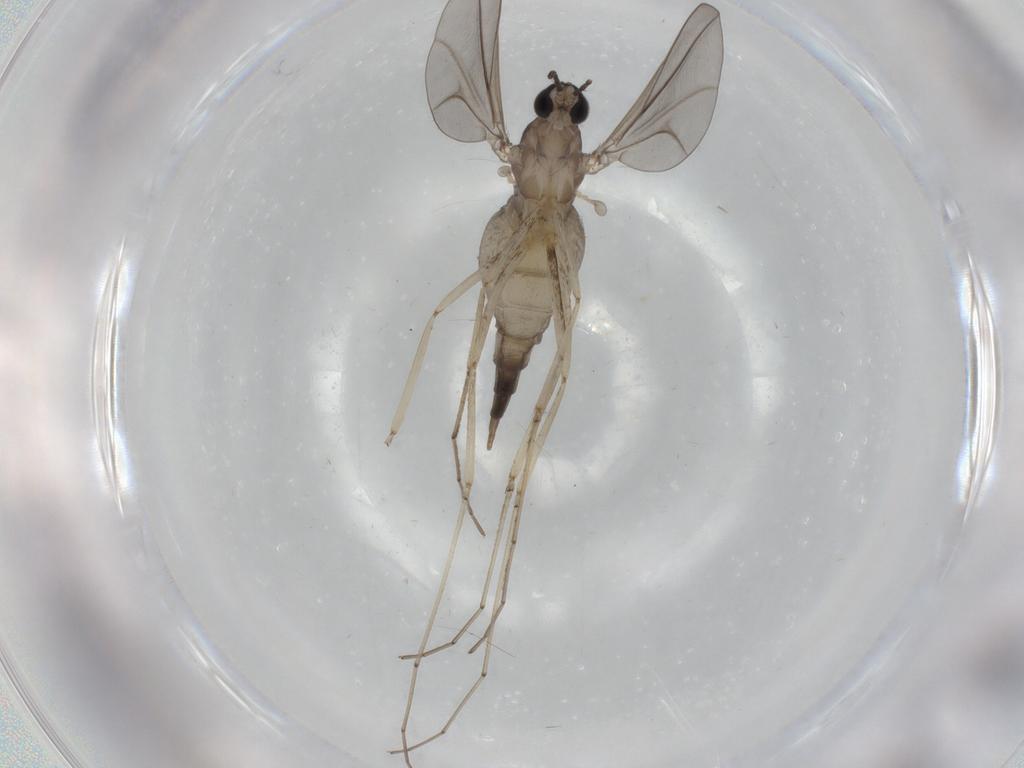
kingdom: Animalia
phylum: Arthropoda
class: Insecta
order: Diptera
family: Cecidomyiidae
